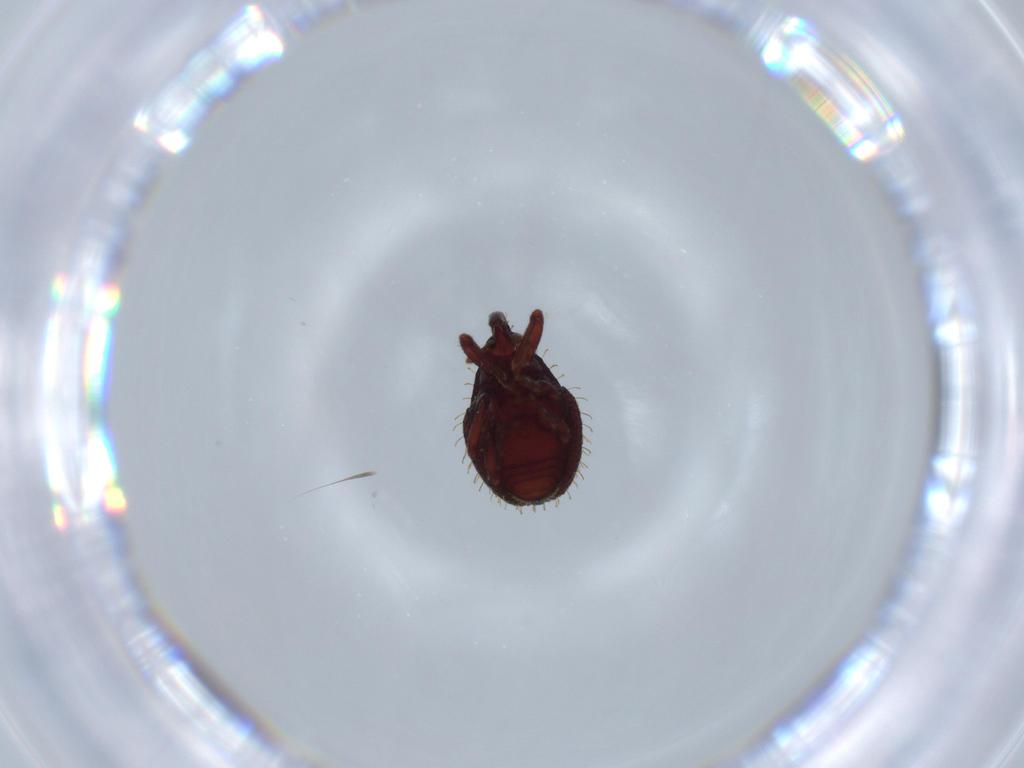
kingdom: Animalia
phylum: Arthropoda
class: Insecta
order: Coleoptera
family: Curculionidae
